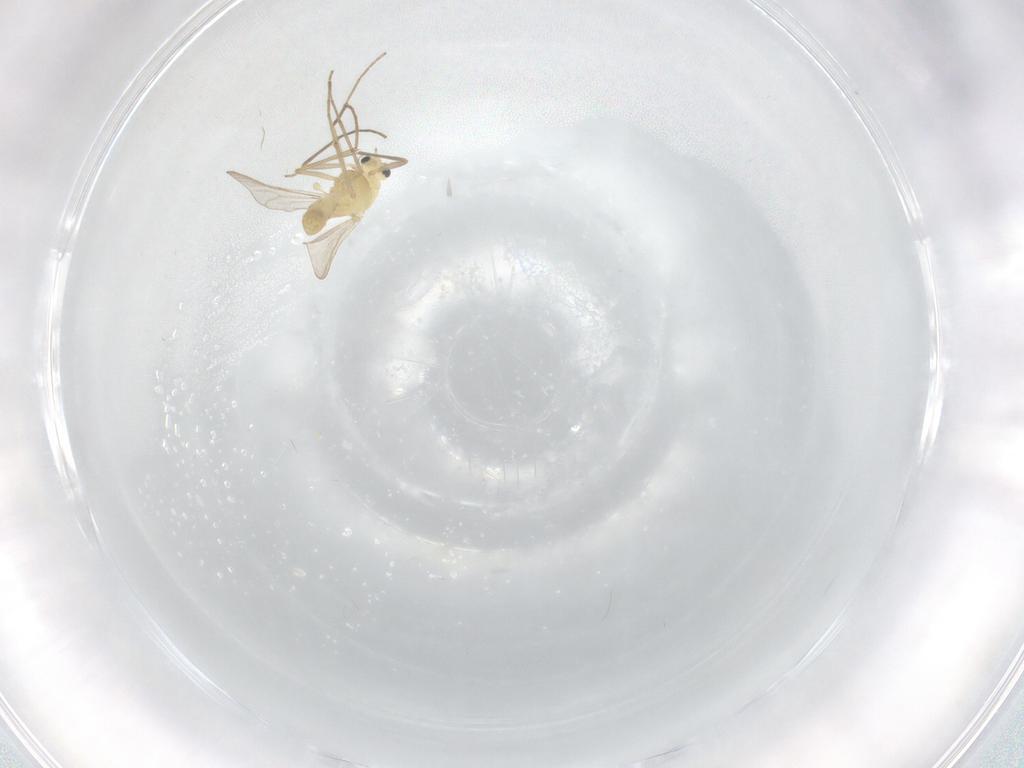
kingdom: Animalia
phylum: Arthropoda
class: Insecta
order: Diptera
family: Chironomidae
